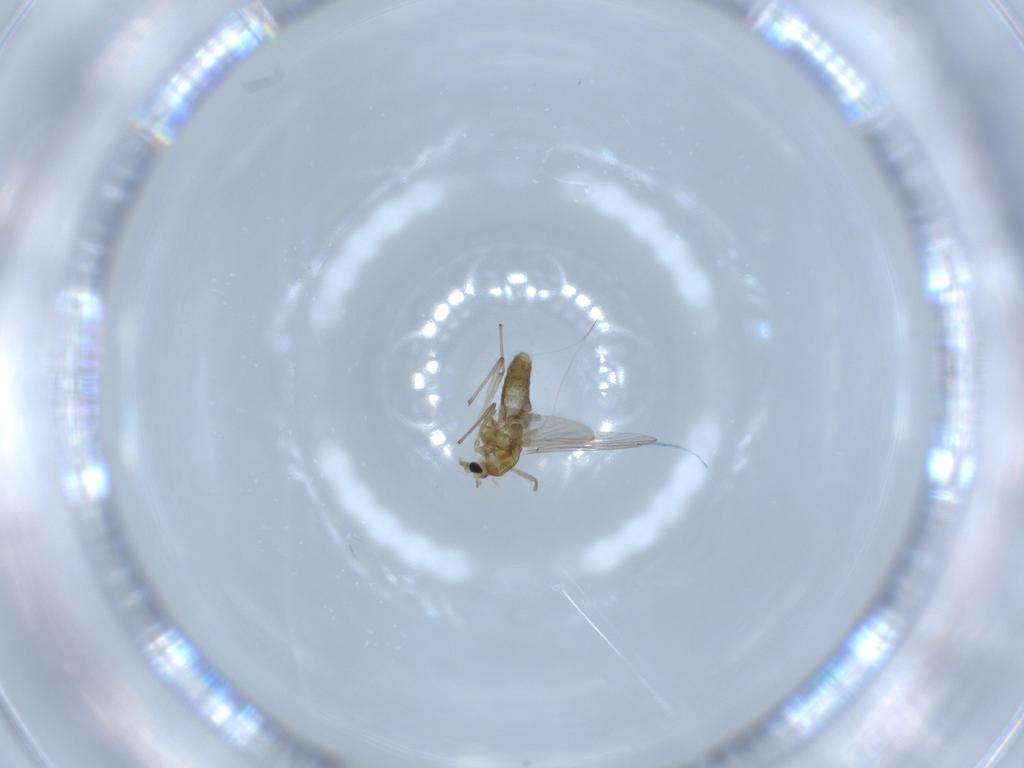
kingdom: Animalia
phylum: Arthropoda
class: Insecta
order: Diptera
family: Chironomidae
